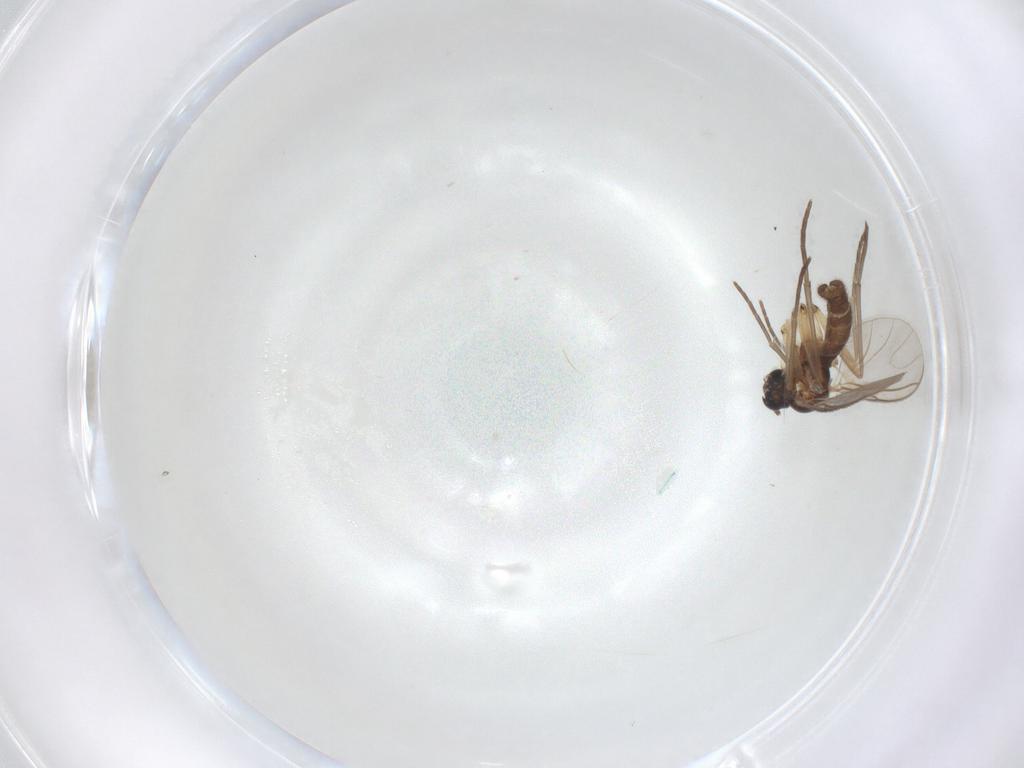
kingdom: Animalia
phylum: Arthropoda
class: Insecta
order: Diptera
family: Sciaridae
